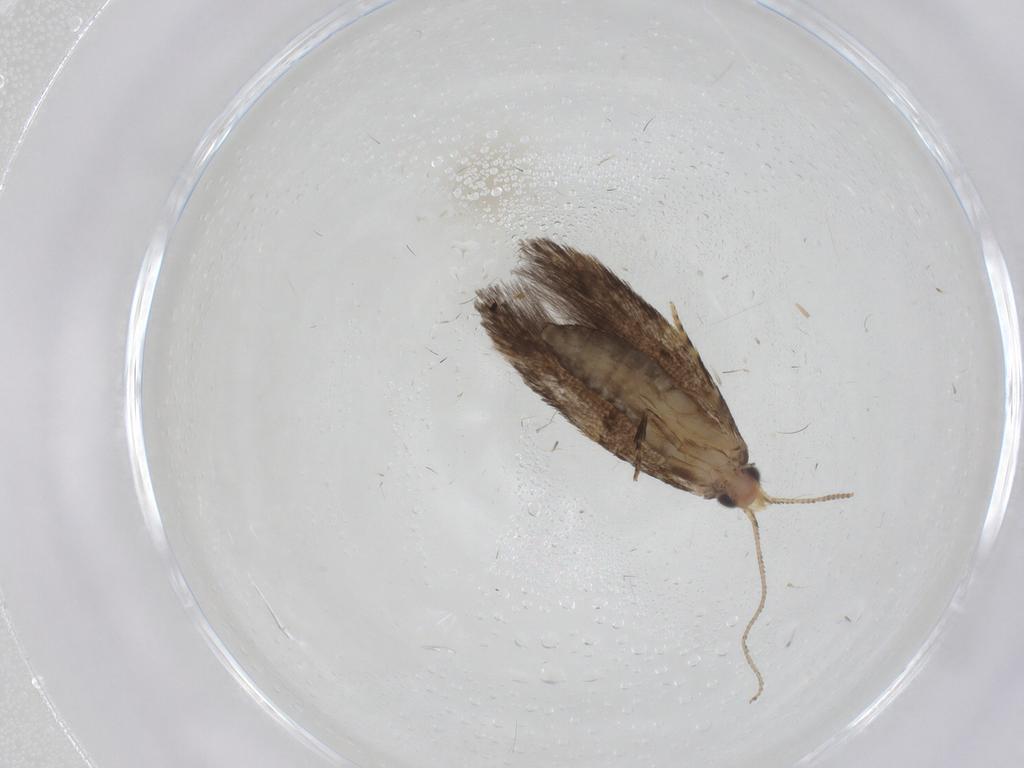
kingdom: Animalia
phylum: Arthropoda
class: Insecta
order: Lepidoptera
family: Tineidae
